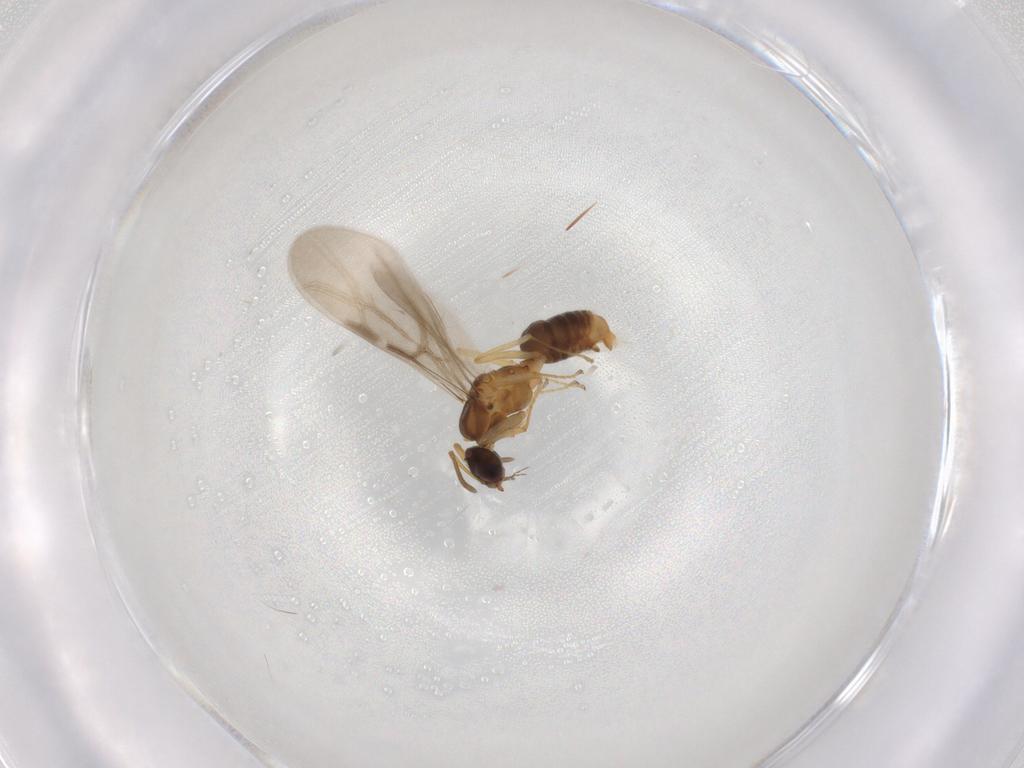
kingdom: Animalia
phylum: Arthropoda
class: Insecta
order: Hymenoptera
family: Formicidae
